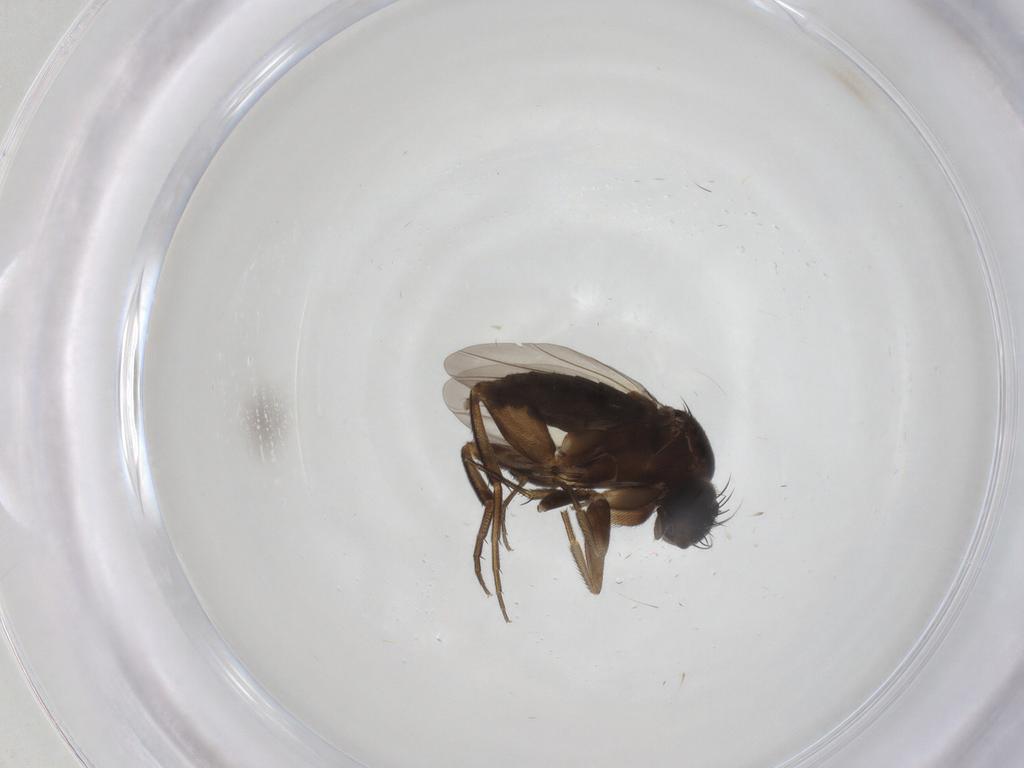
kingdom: Animalia
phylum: Arthropoda
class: Insecta
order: Diptera
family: Phoridae
